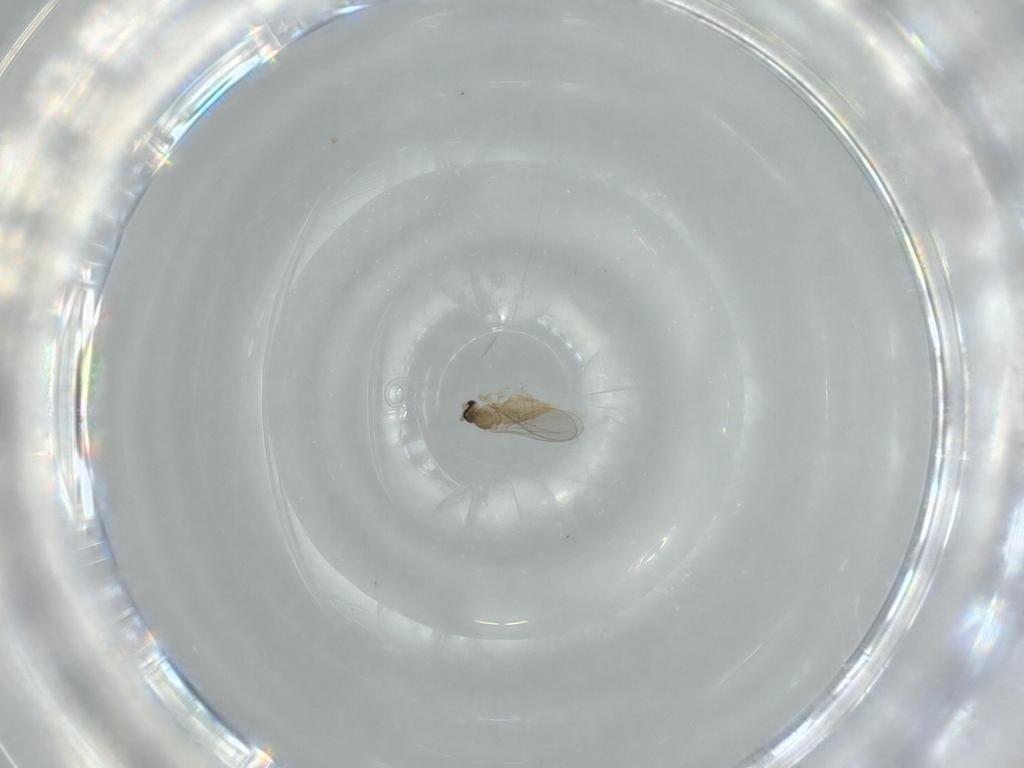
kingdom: Animalia
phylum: Arthropoda
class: Insecta
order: Diptera
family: Cecidomyiidae
